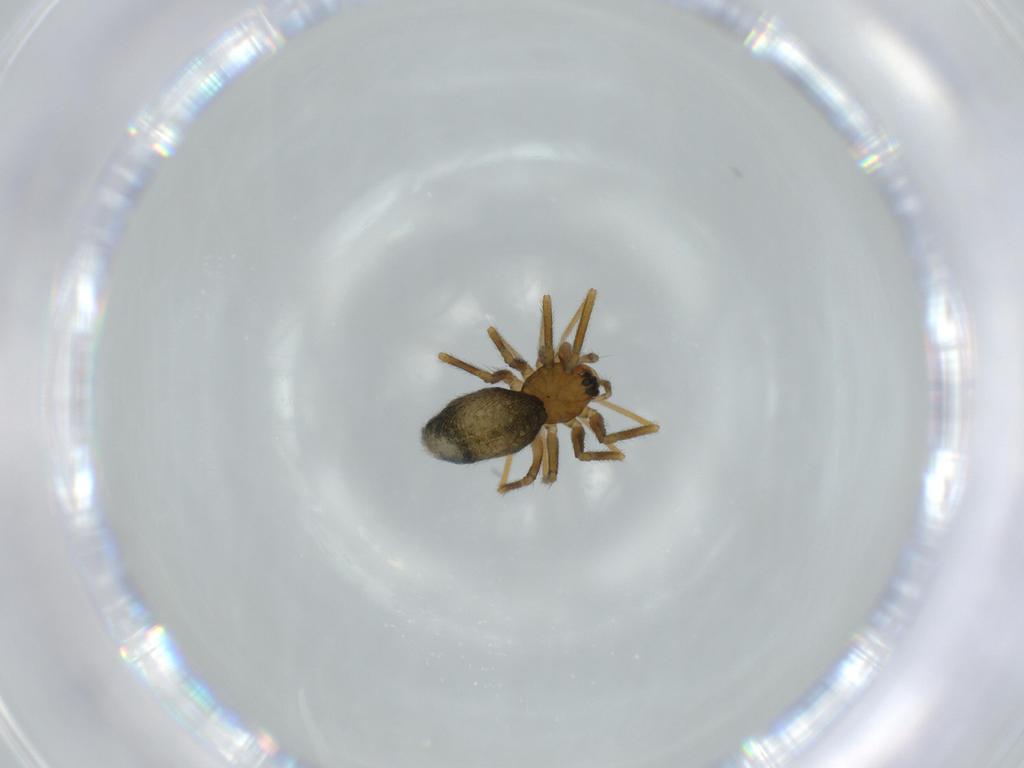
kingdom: Animalia
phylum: Arthropoda
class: Arachnida
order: Araneae
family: Linyphiidae
